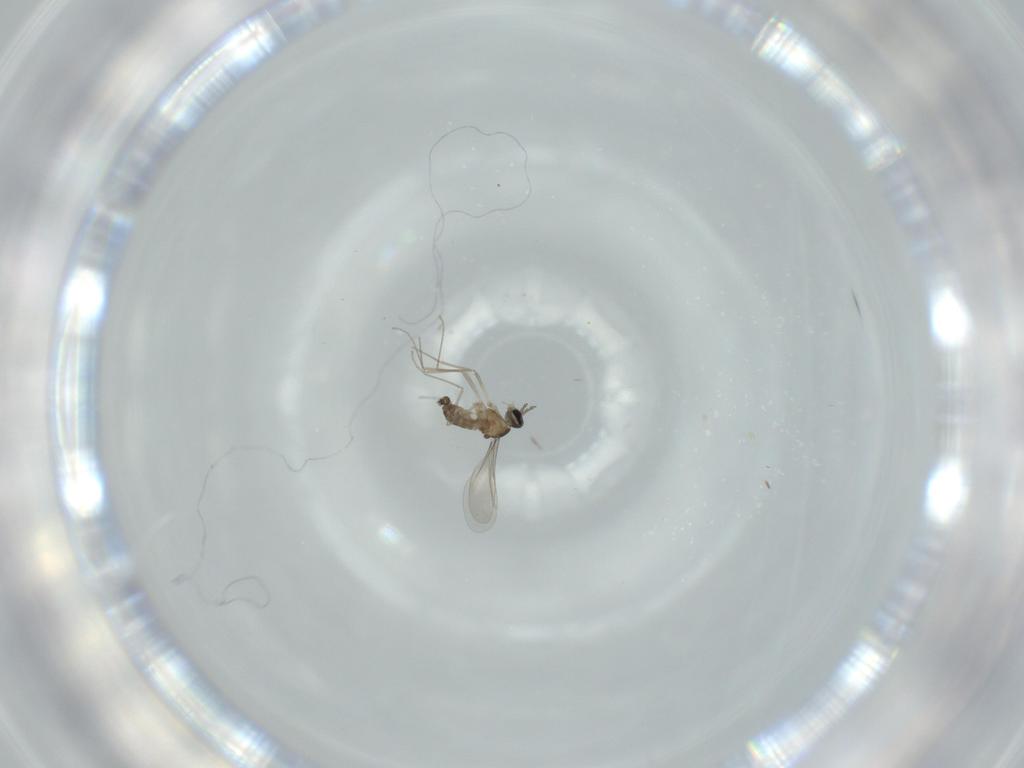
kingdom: Animalia
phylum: Arthropoda
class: Insecta
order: Diptera
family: Cecidomyiidae
